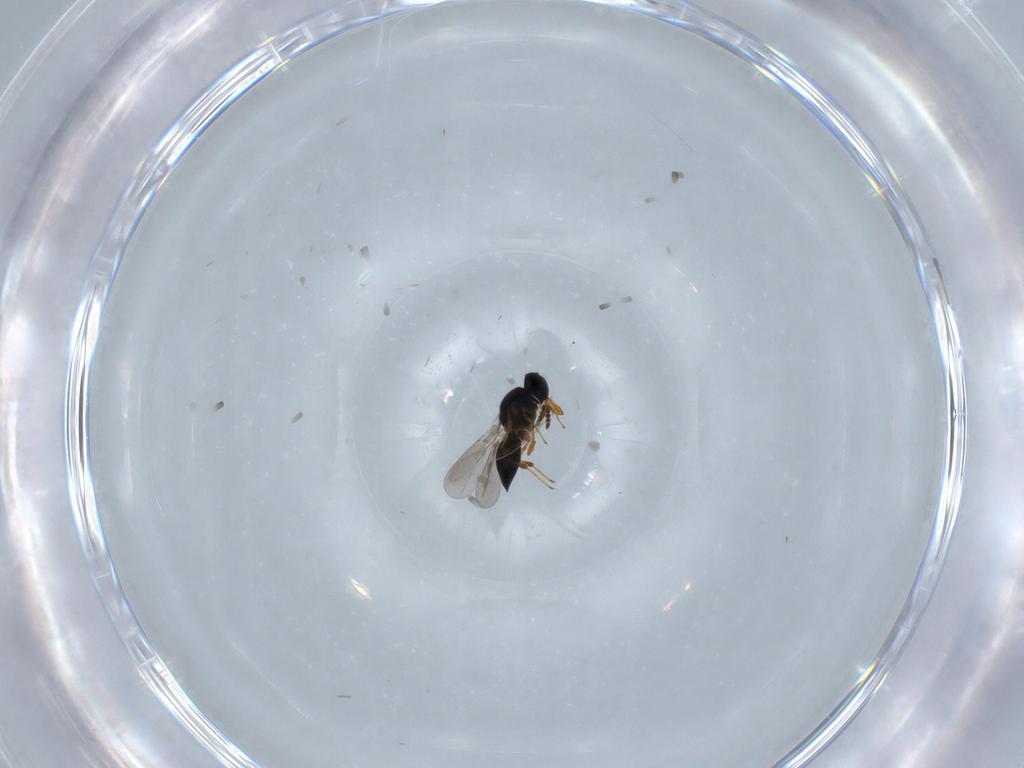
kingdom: Animalia
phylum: Arthropoda
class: Insecta
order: Hymenoptera
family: Platygastridae
